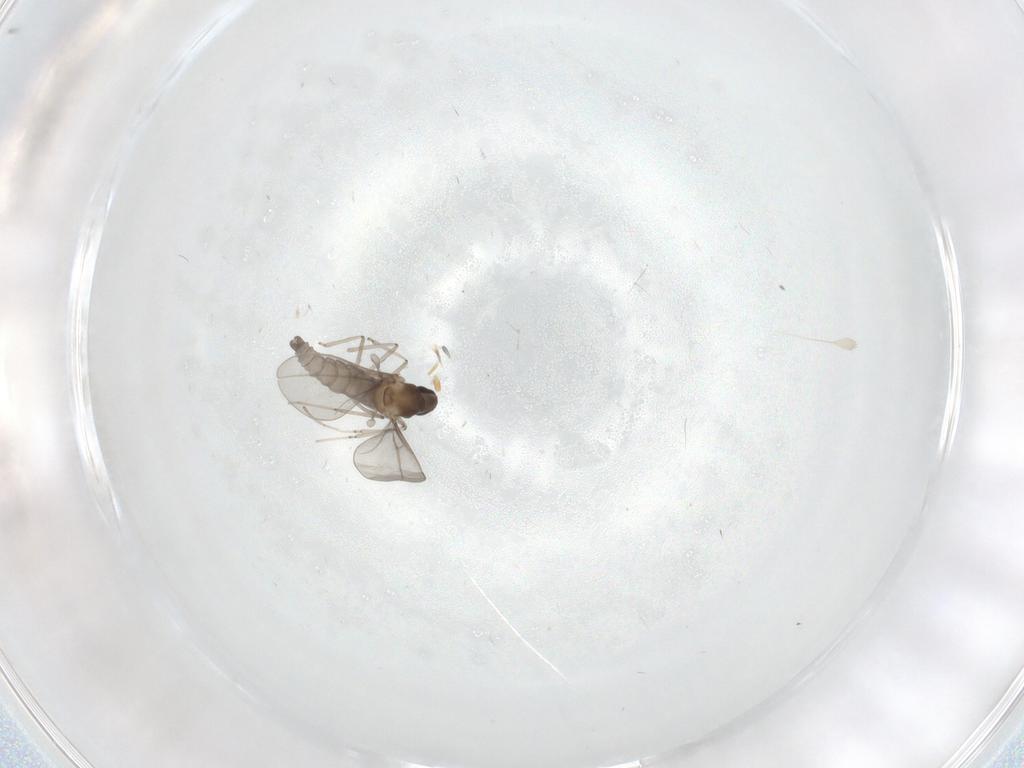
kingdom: Animalia
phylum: Arthropoda
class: Insecta
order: Diptera
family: Cecidomyiidae
